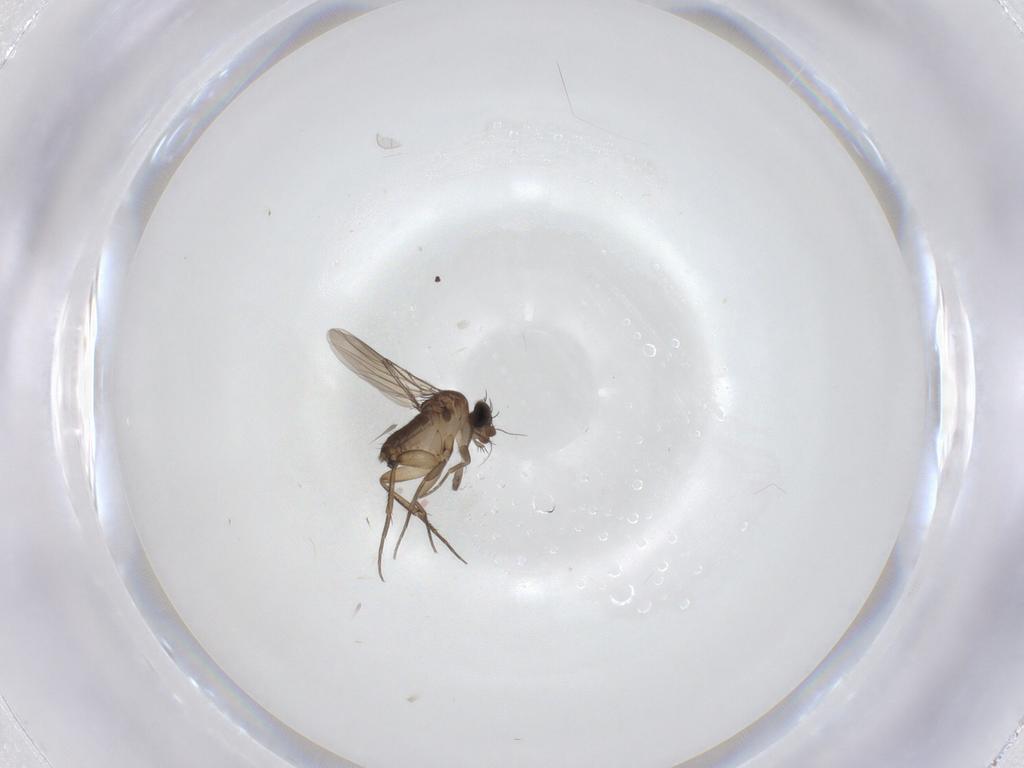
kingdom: Animalia
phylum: Arthropoda
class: Insecta
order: Diptera
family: Phoridae
